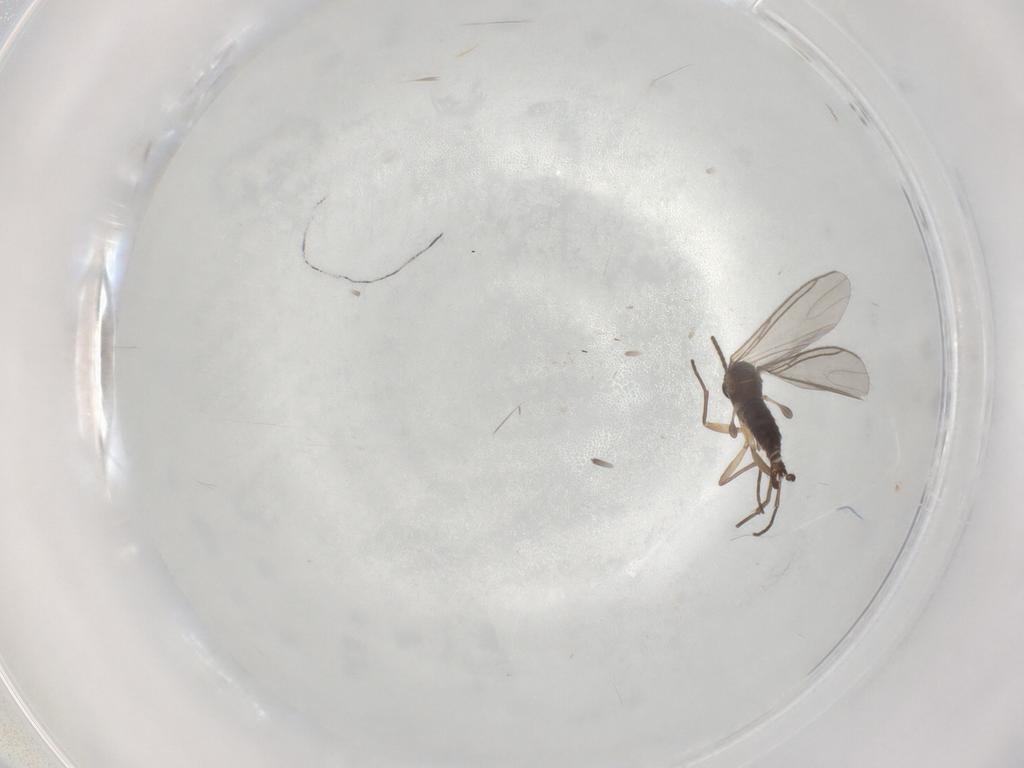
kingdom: Animalia
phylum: Arthropoda
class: Insecta
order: Diptera
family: Sciaridae
